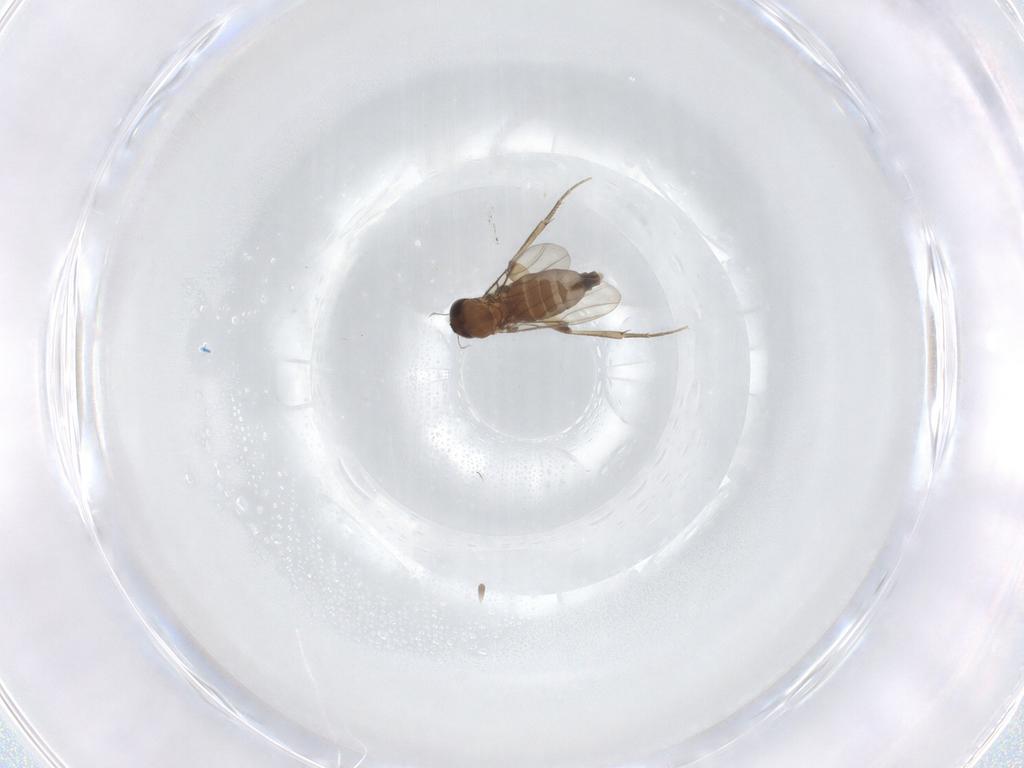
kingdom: Animalia
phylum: Arthropoda
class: Insecta
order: Diptera
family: Phoridae
